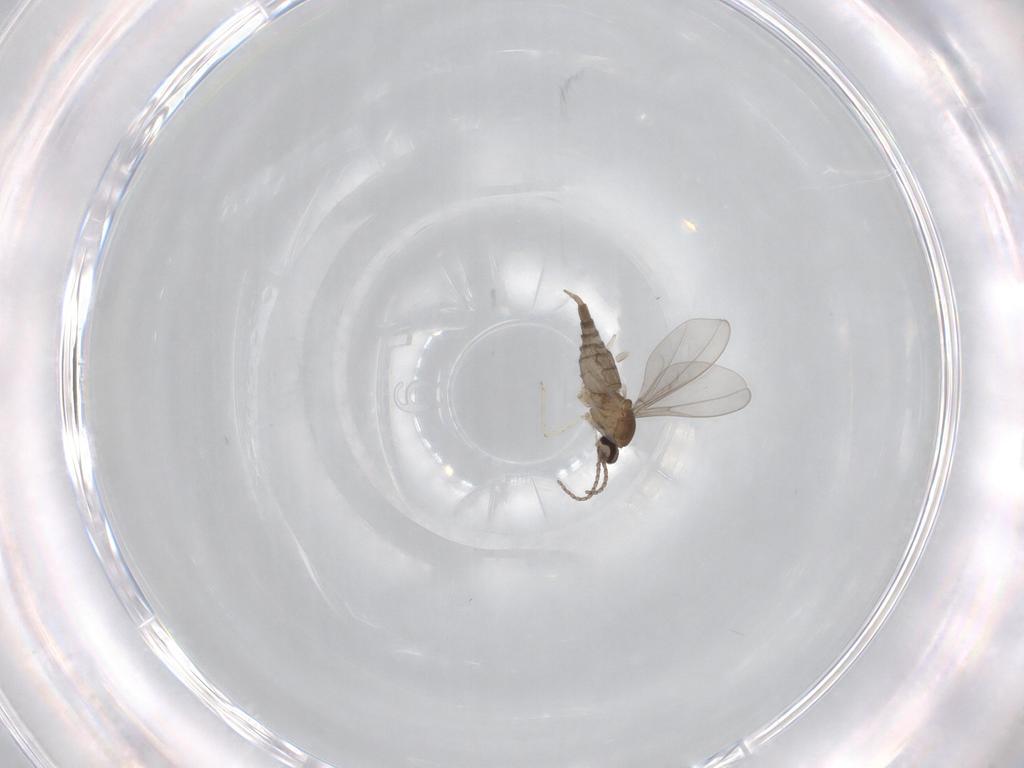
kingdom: Animalia
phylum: Arthropoda
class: Insecta
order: Diptera
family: Cecidomyiidae
